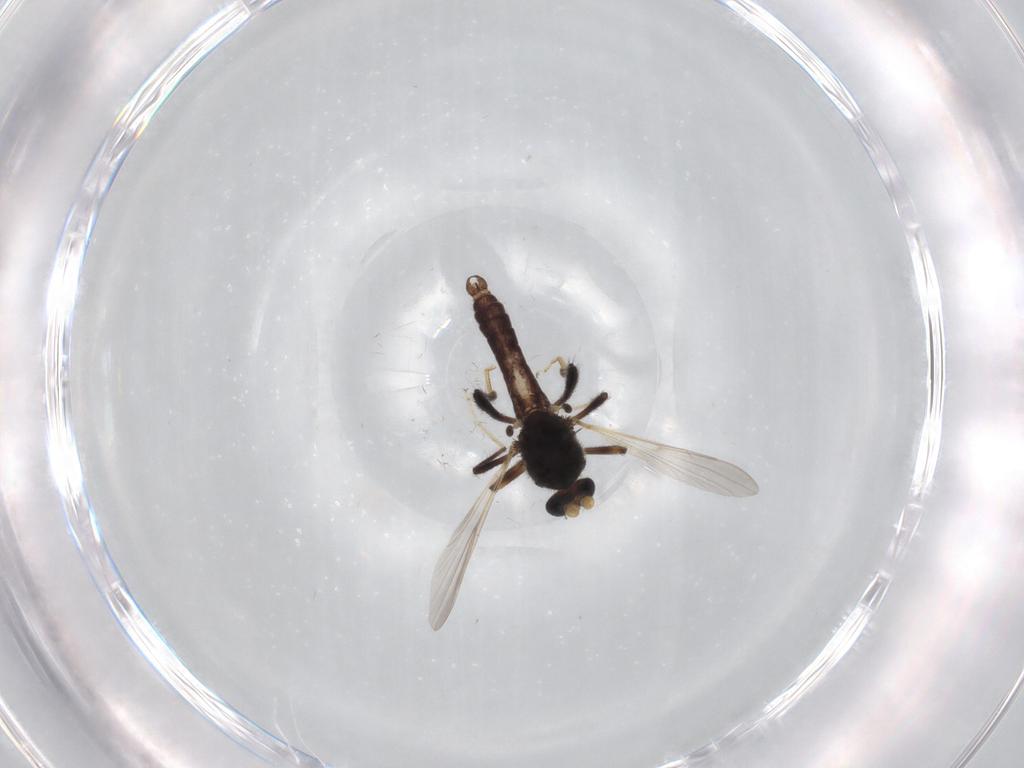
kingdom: Animalia
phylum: Arthropoda
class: Insecta
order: Diptera
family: Ceratopogonidae
